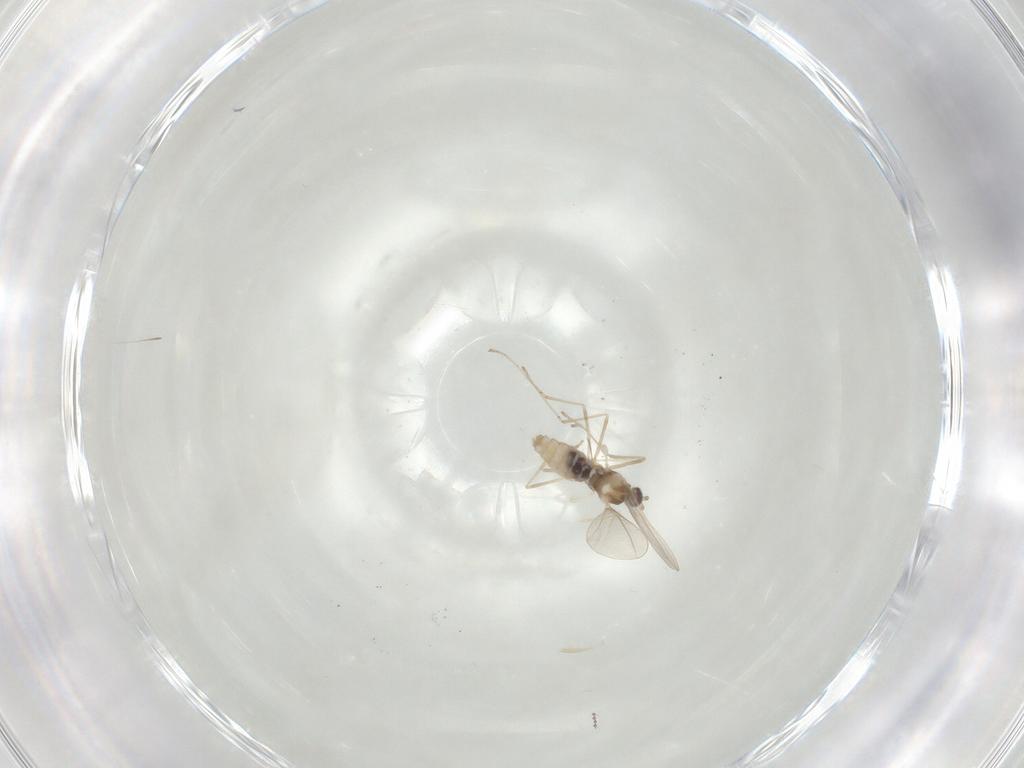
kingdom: Animalia
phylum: Arthropoda
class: Insecta
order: Diptera
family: Cecidomyiidae
